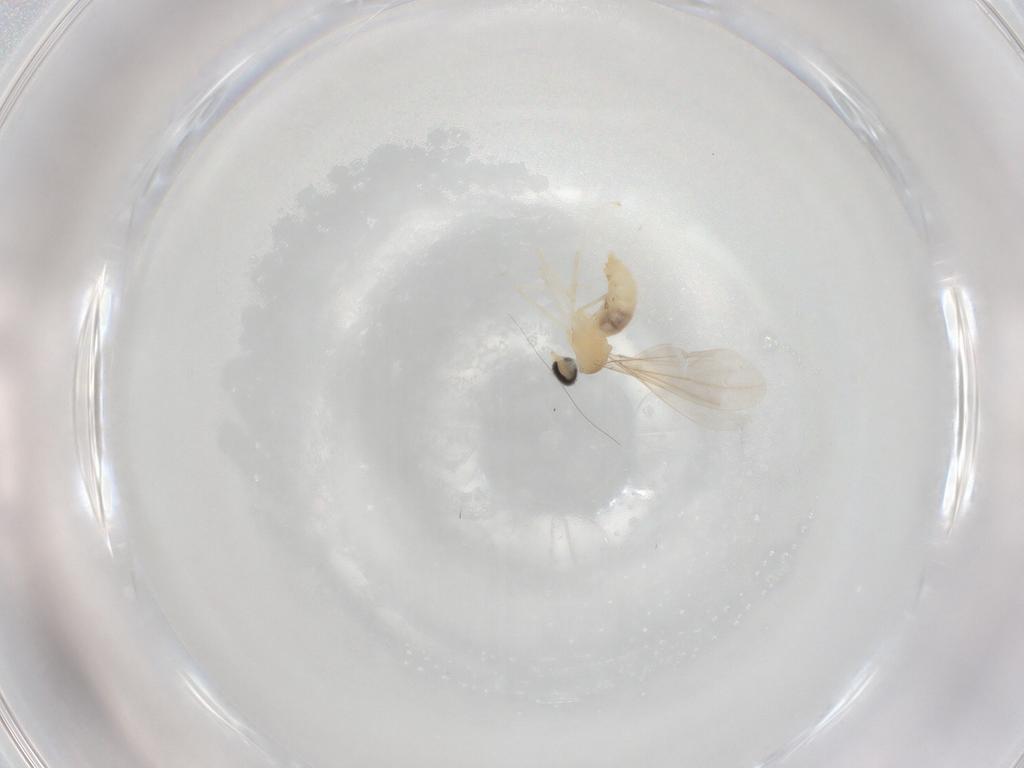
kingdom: Animalia
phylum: Arthropoda
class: Insecta
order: Diptera
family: Cecidomyiidae
